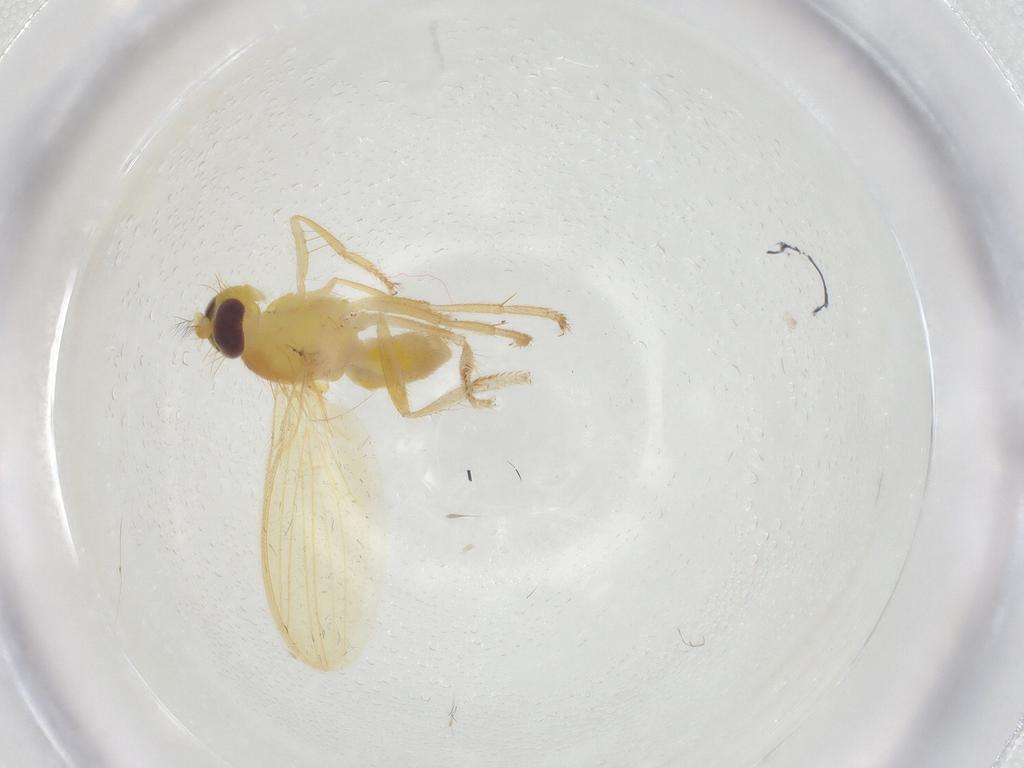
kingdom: Animalia
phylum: Arthropoda
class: Insecta
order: Diptera
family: Periscelididae
